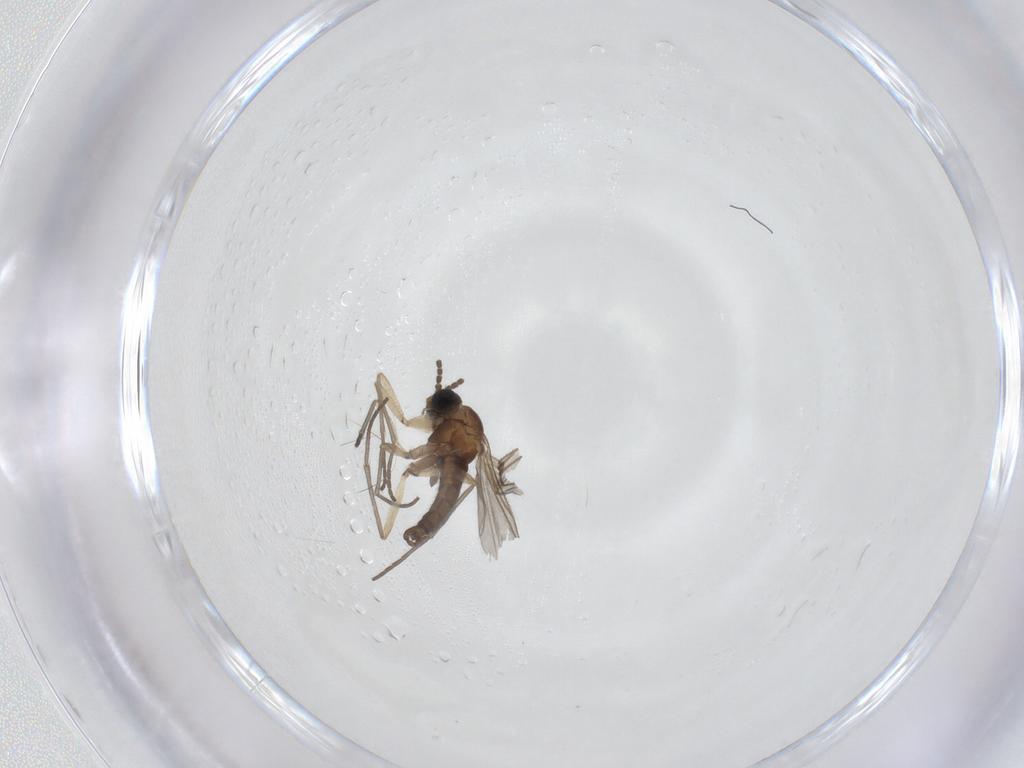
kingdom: Animalia
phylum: Arthropoda
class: Insecta
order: Diptera
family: Sciaridae
